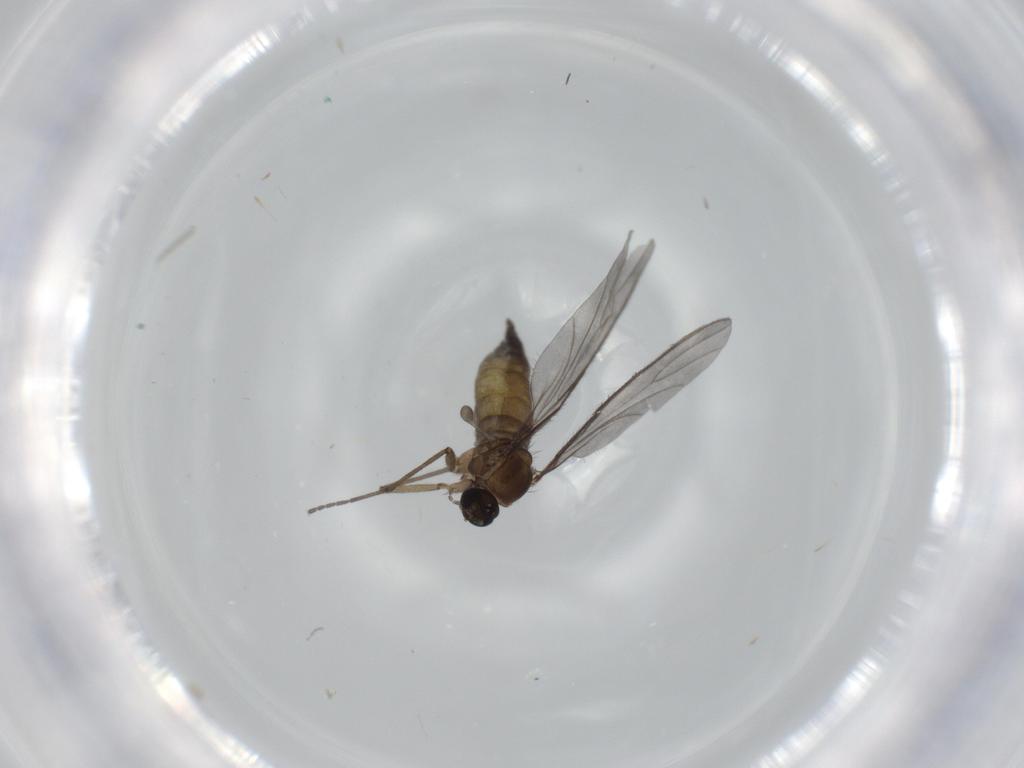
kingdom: Animalia
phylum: Arthropoda
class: Insecta
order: Diptera
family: Sciaridae
